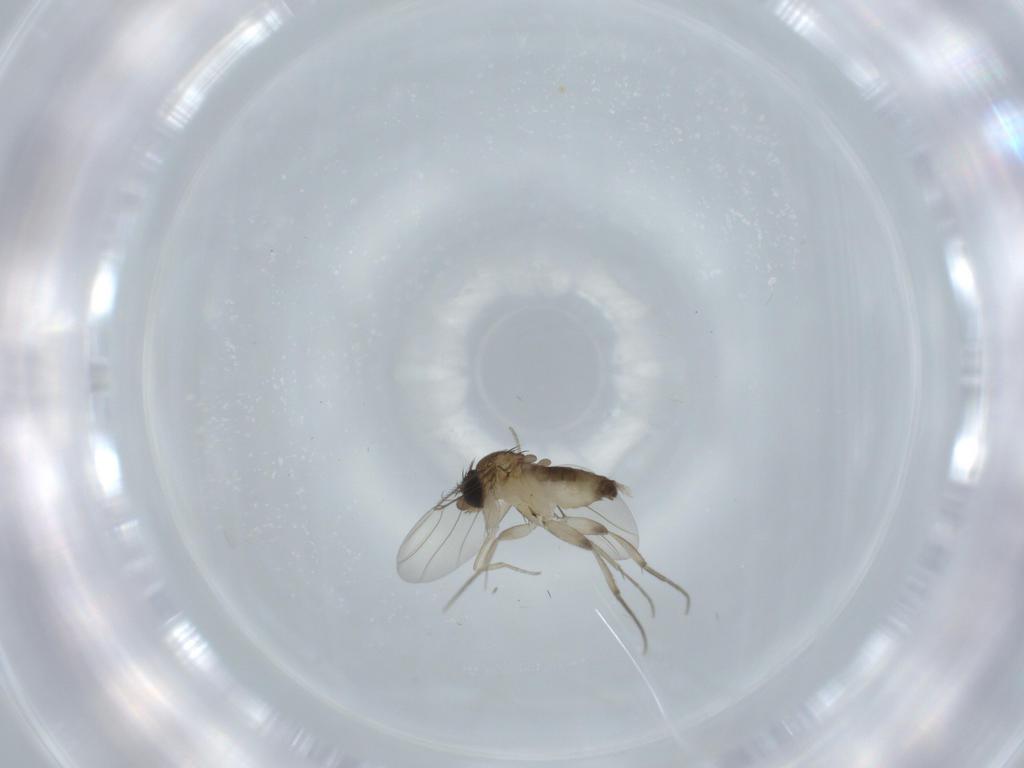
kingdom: Animalia
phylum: Arthropoda
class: Insecta
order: Diptera
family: Phoridae
